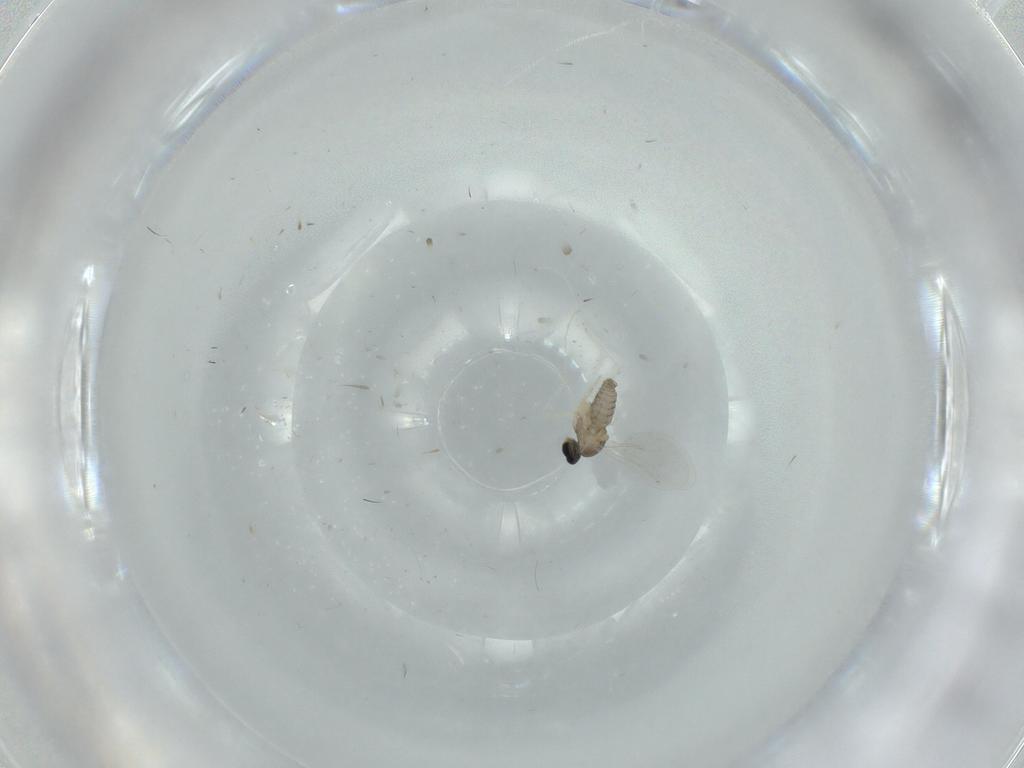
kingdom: Animalia
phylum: Arthropoda
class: Insecta
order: Diptera
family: Cecidomyiidae
